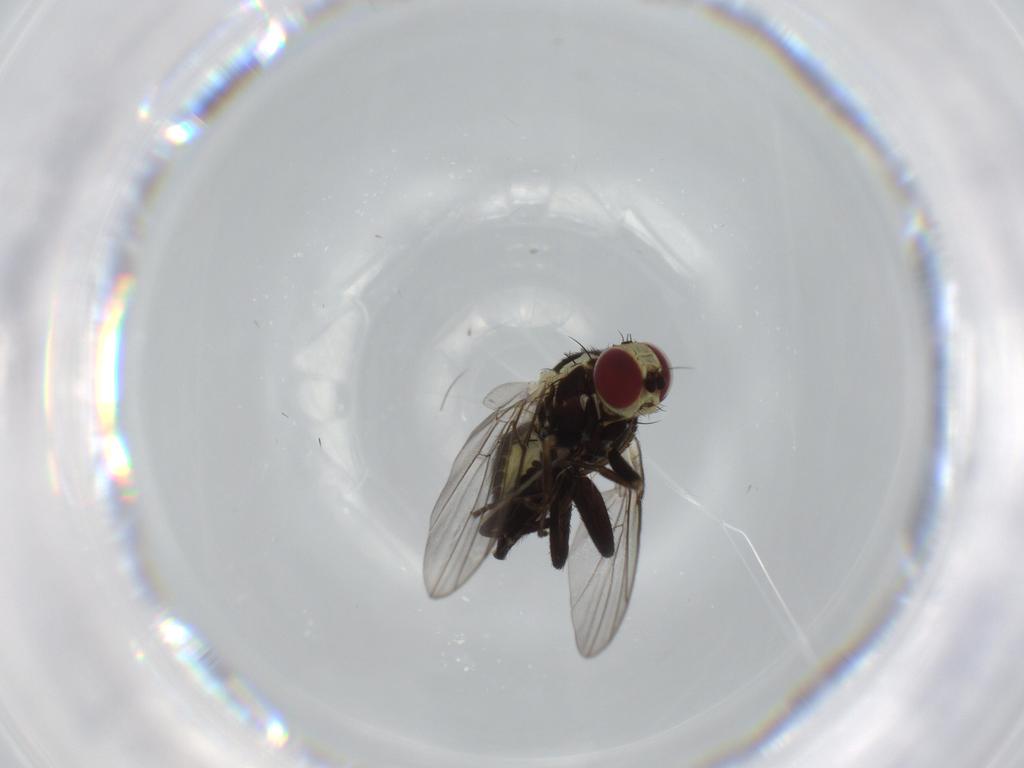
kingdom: Animalia
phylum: Arthropoda
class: Insecta
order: Diptera
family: Agromyzidae
